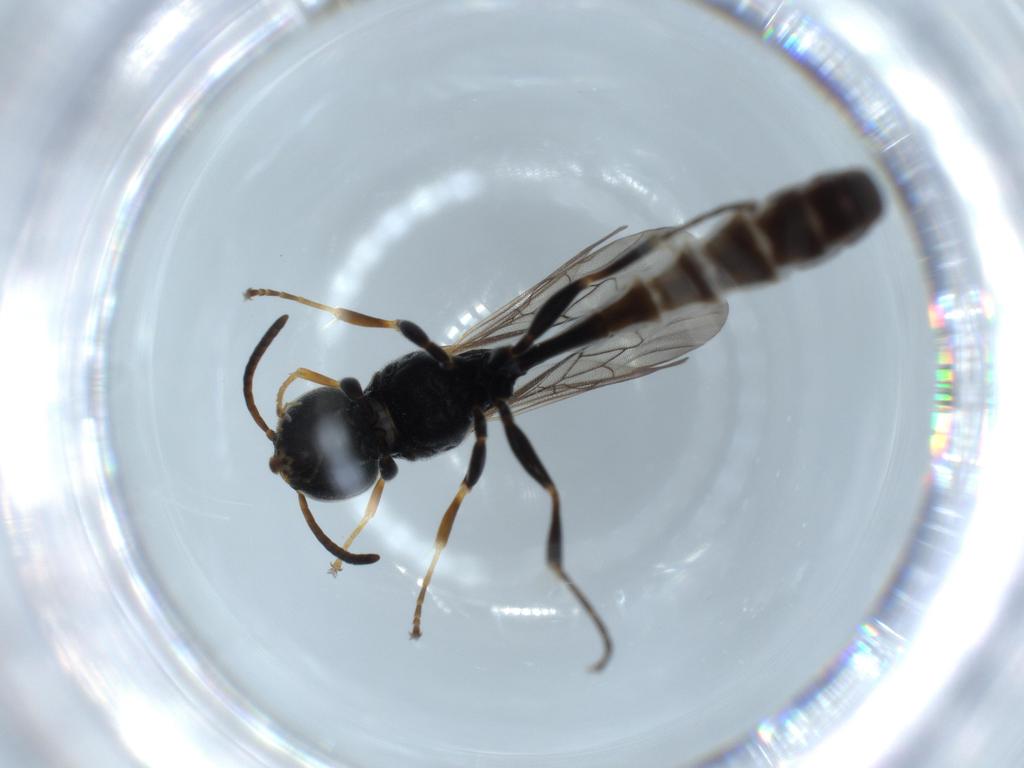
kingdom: Animalia
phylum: Arthropoda
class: Insecta
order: Hymenoptera
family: Crabronidae
